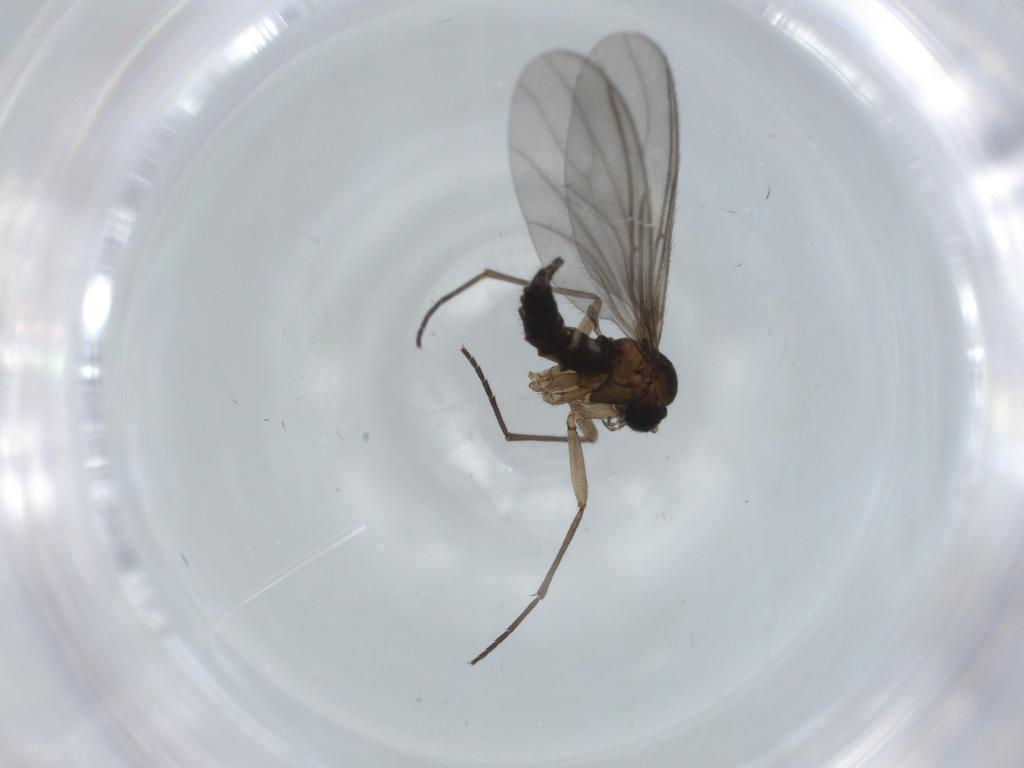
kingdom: Animalia
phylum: Arthropoda
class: Insecta
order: Diptera
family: Sciaridae
